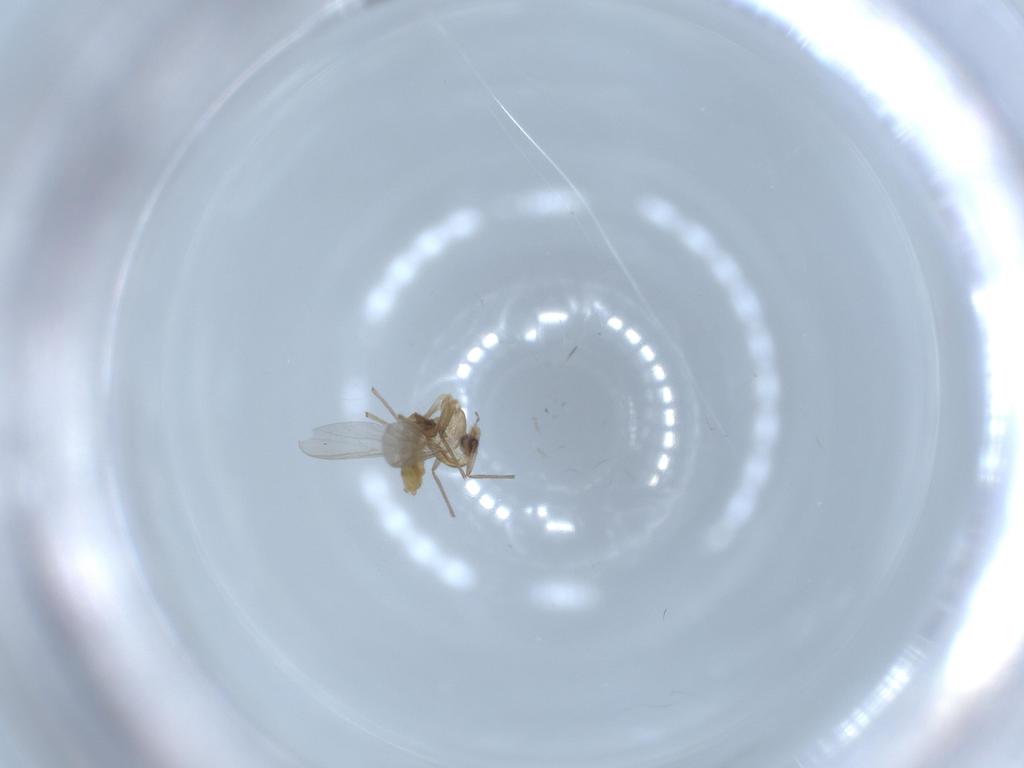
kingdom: Animalia
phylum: Arthropoda
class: Insecta
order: Diptera
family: Chironomidae
